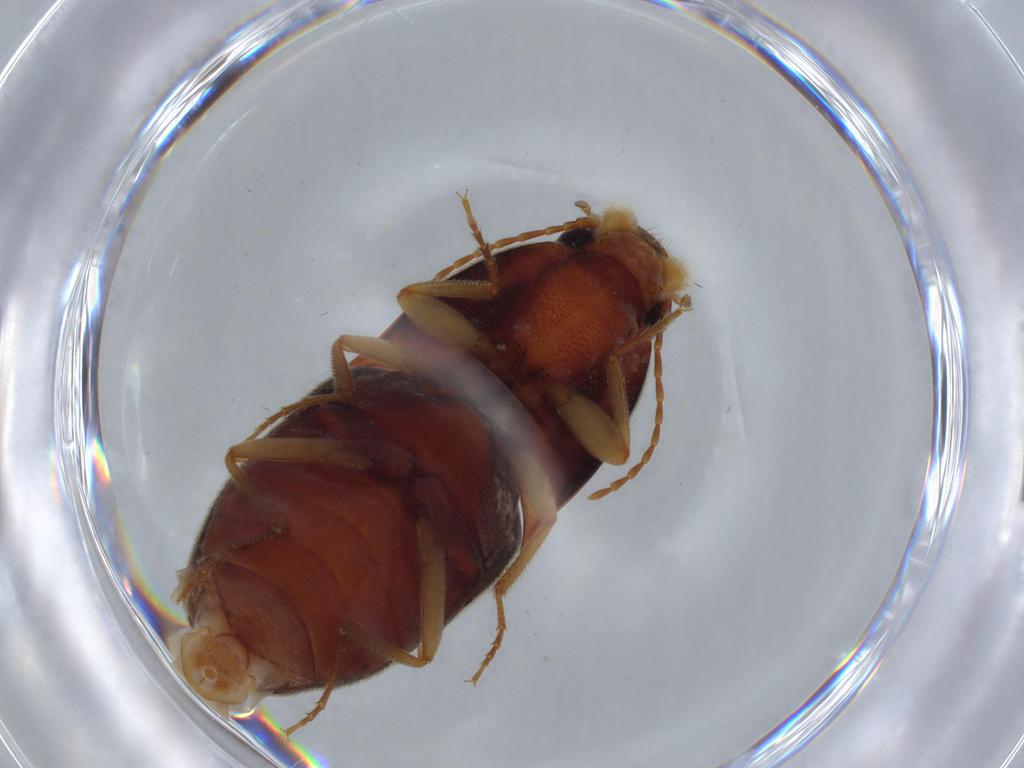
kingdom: Animalia
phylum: Arthropoda
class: Insecta
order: Coleoptera
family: Elateridae
